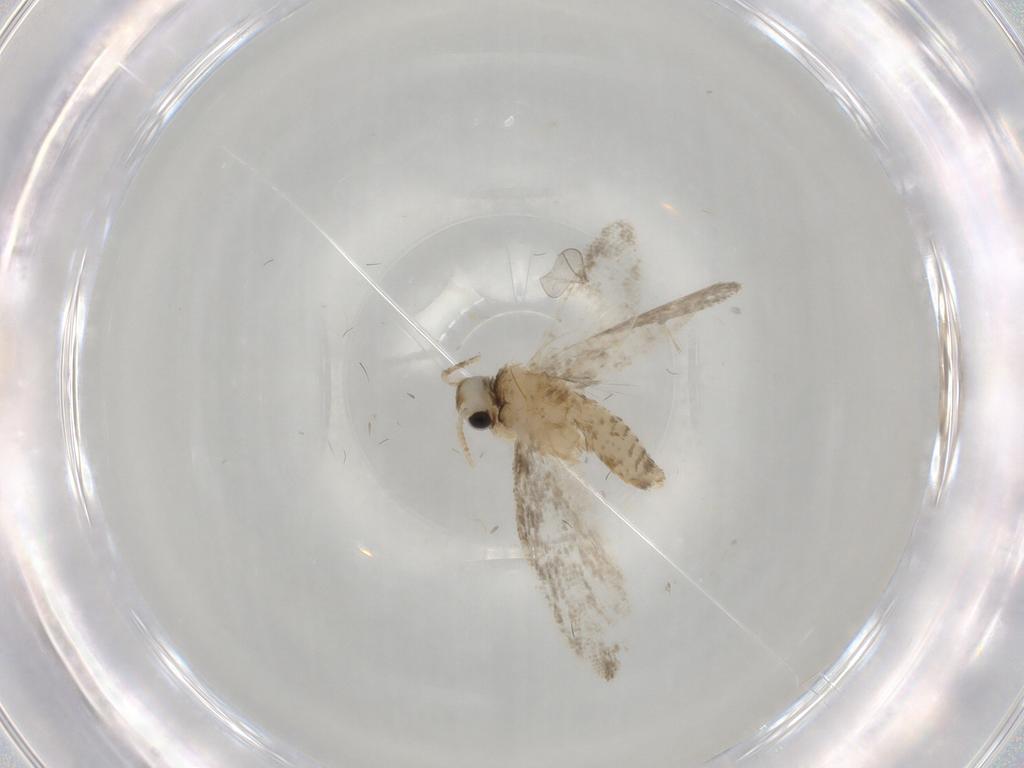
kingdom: Animalia
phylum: Arthropoda
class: Insecta
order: Lepidoptera
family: Psychidae
